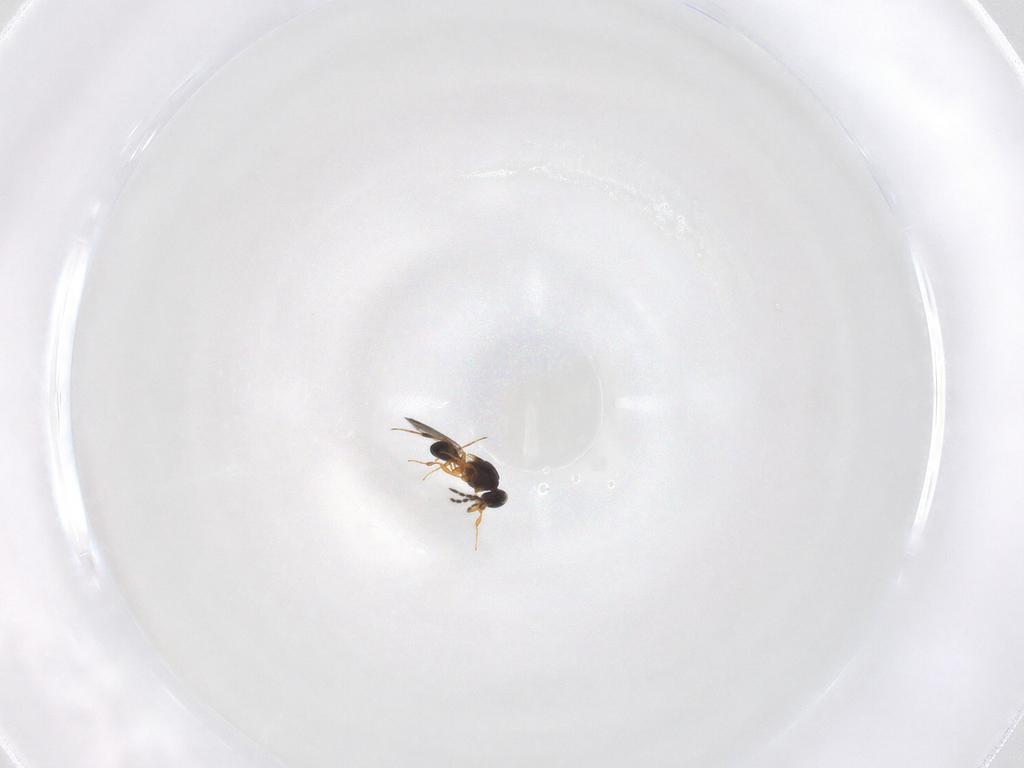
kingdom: Animalia
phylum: Arthropoda
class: Insecta
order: Hymenoptera
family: Platygastridae
